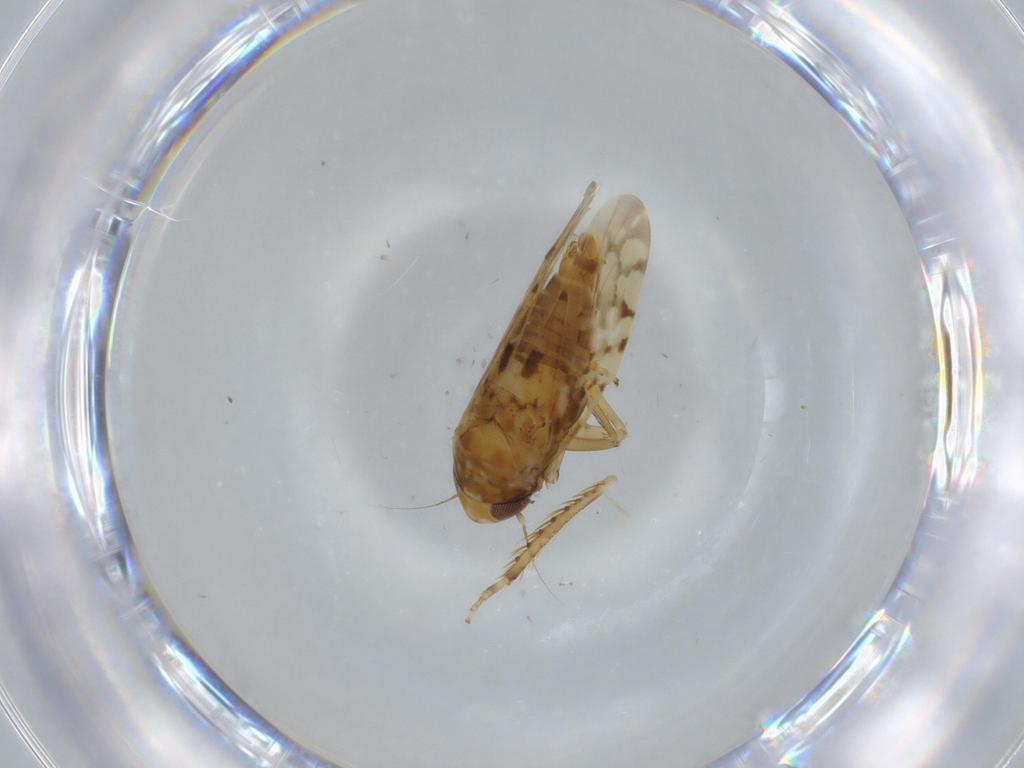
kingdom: Animalia
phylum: Arthropoda
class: Insecta
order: Hemiptera
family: Cicadellidae
